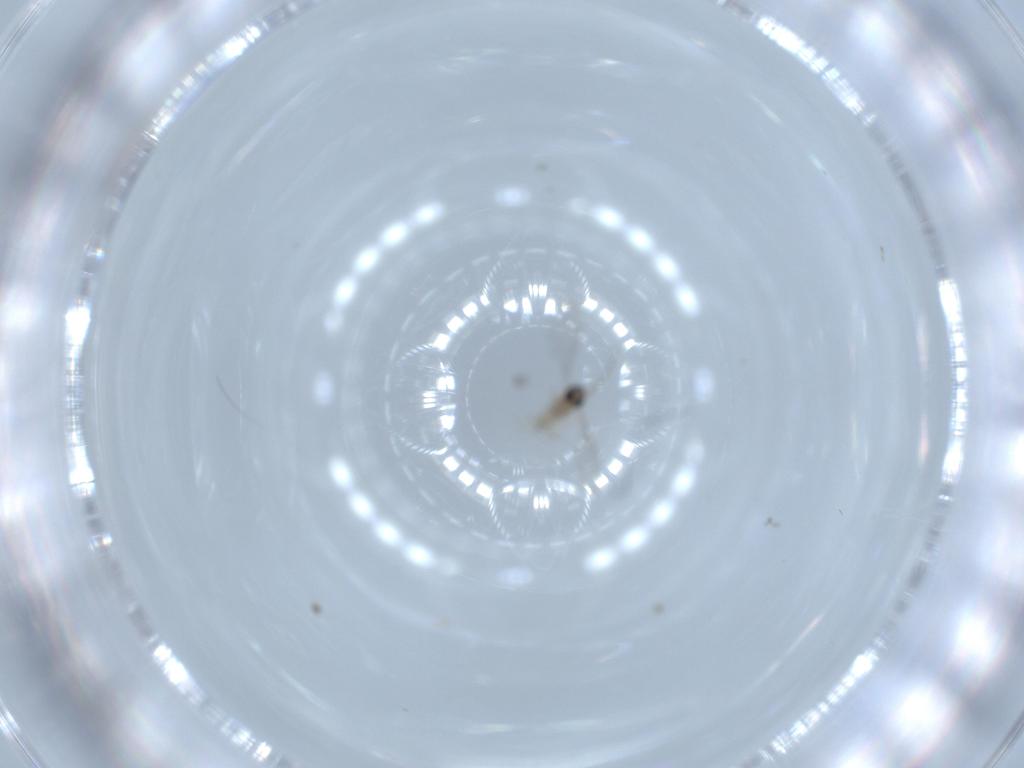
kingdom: Animalia
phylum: Arthropoda
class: Insecta
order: Diptera
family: Cecidomyiidae
